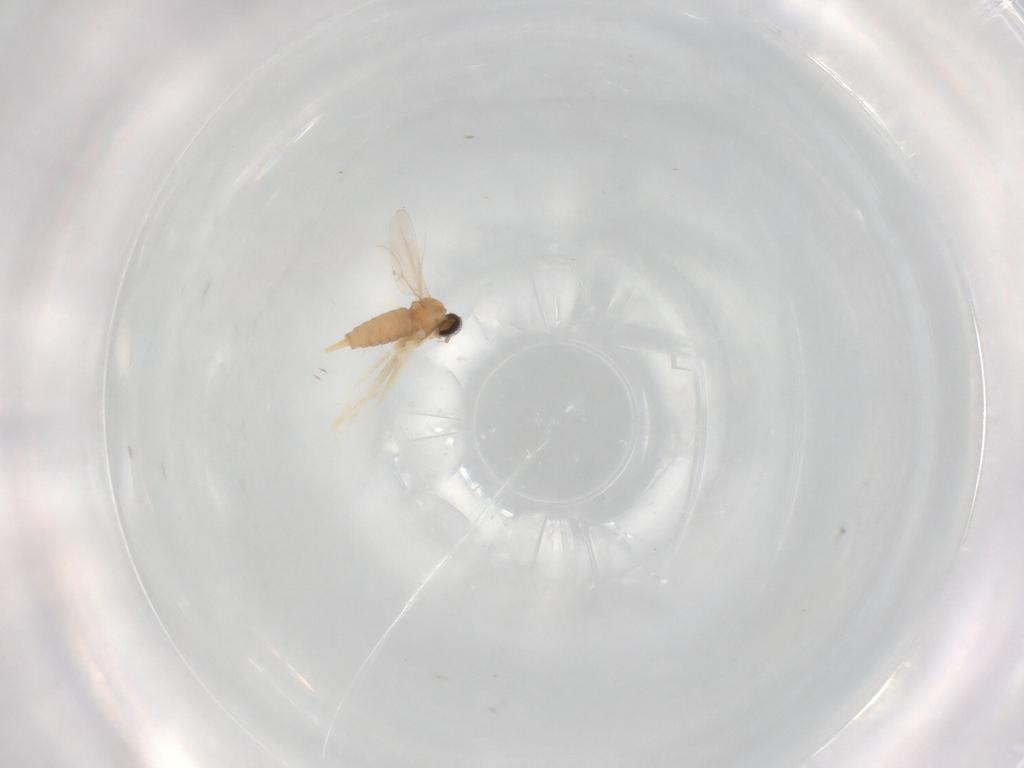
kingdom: Animalia
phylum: Arthropoda
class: Insecta
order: Diptera
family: Cecidomyiidae
